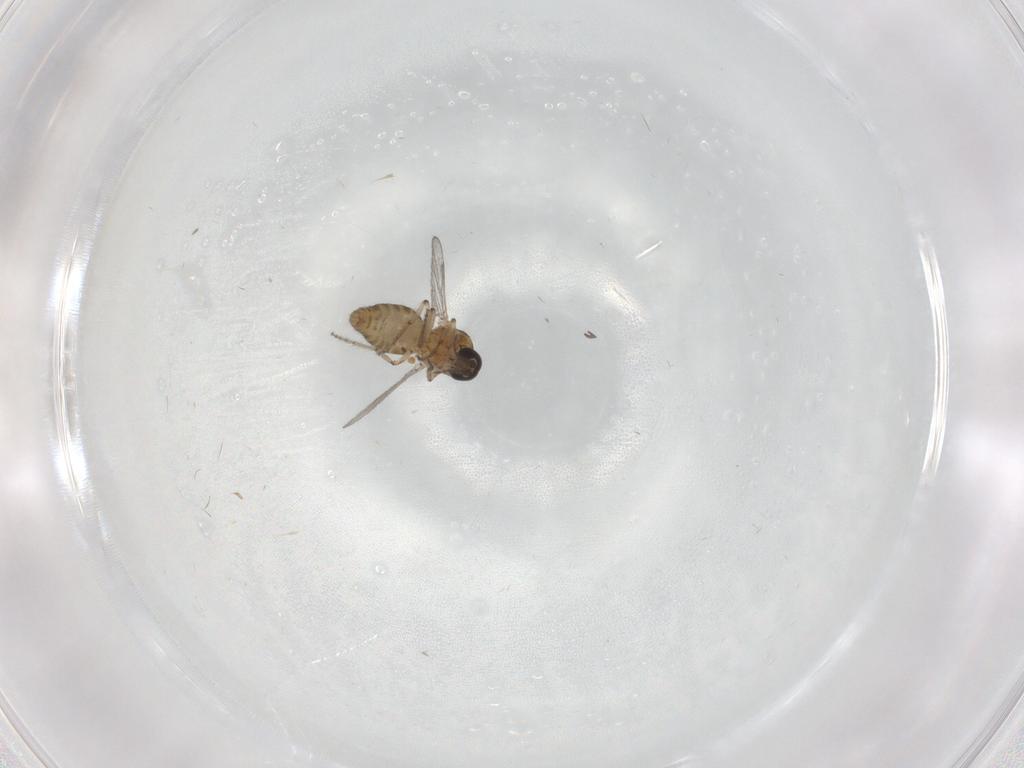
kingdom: Animalia
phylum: Arthropoda
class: Insecta
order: Diptera
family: Ceratopogonidae
